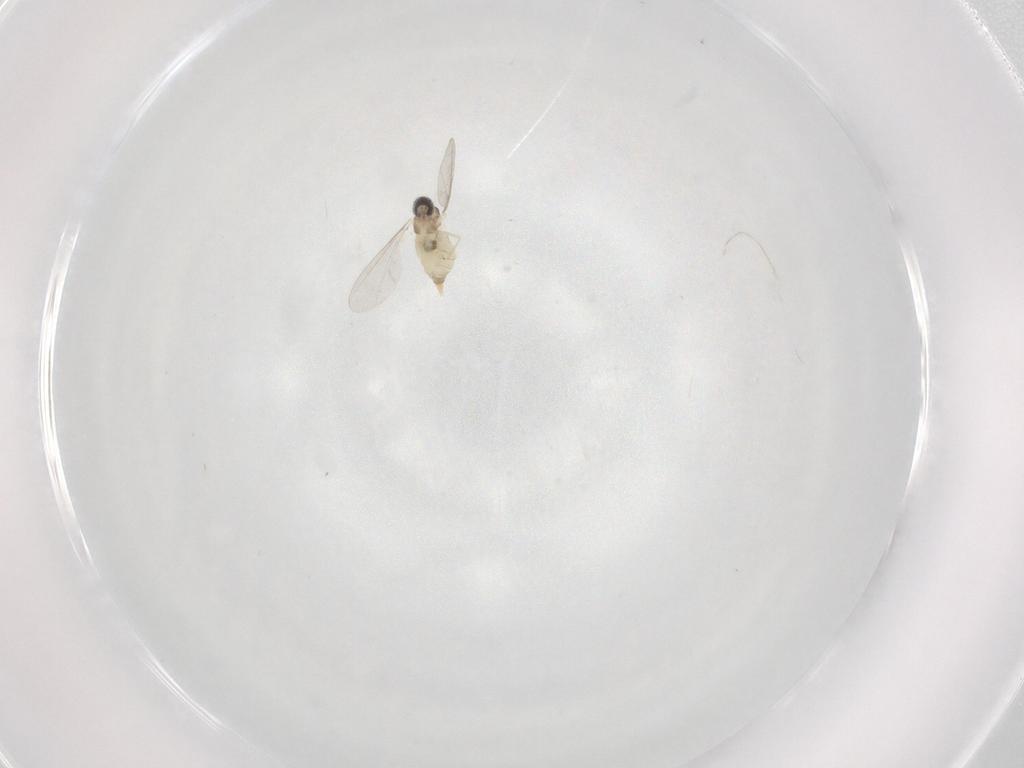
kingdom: Animalia
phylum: Arthropoda
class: Insecta
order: Diptera
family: Cecidomyiidae
